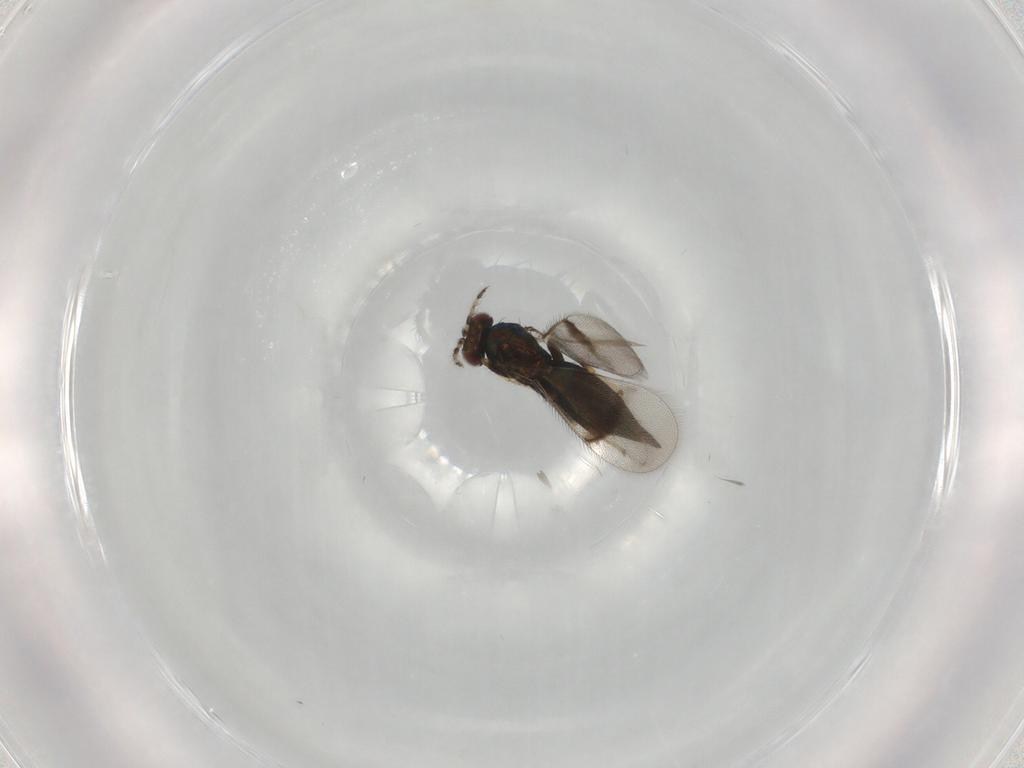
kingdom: Animalia
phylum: Arthropoda
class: Insecta
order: Hymenoptera
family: Eulophidae
